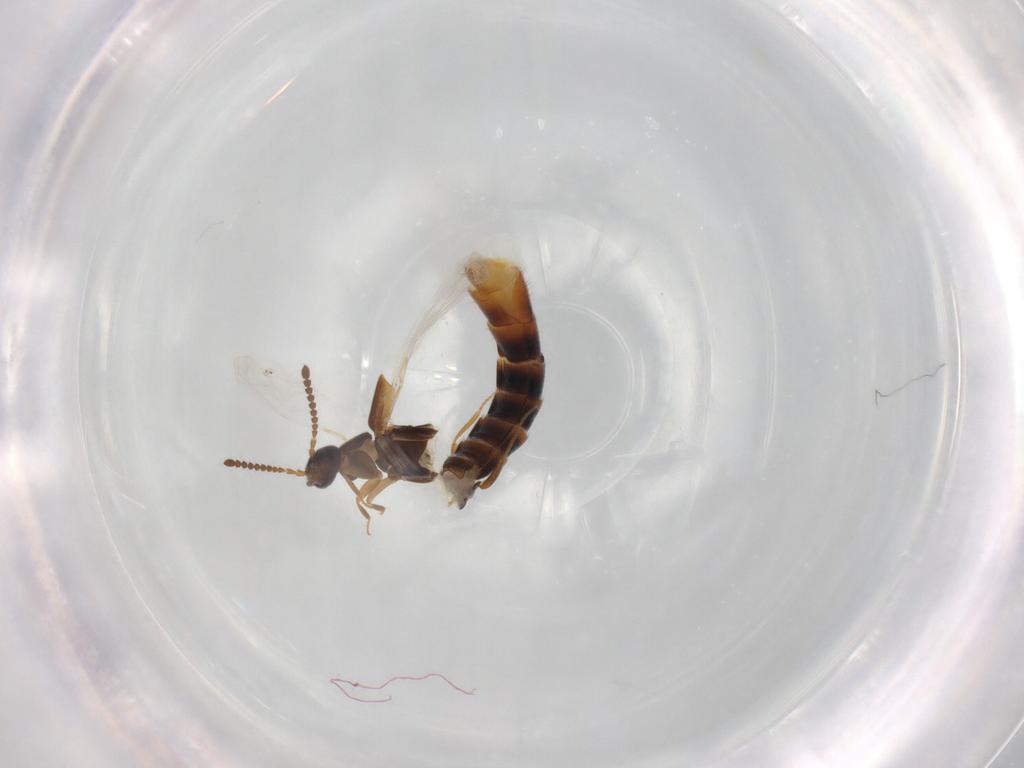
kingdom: Animalia
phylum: Arthropoda
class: Insecta
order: Coleoptera
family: Staphylinidae
